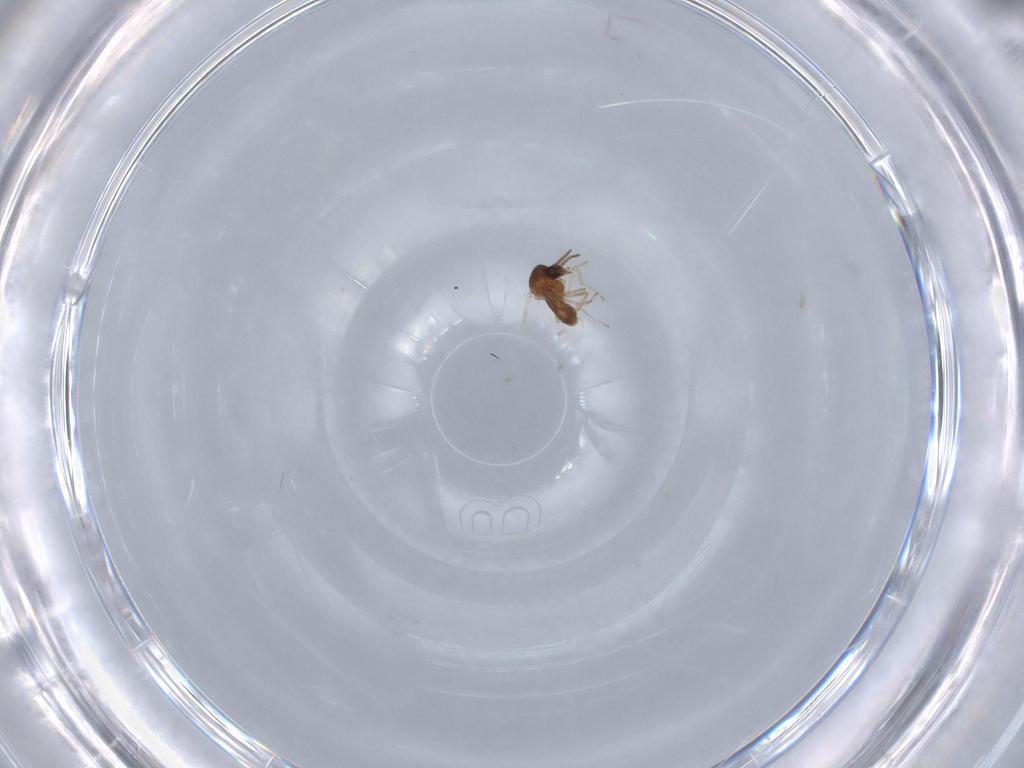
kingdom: Animalia
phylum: Arthropoda
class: Insecta
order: Diptera
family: Ceratopogonidae
